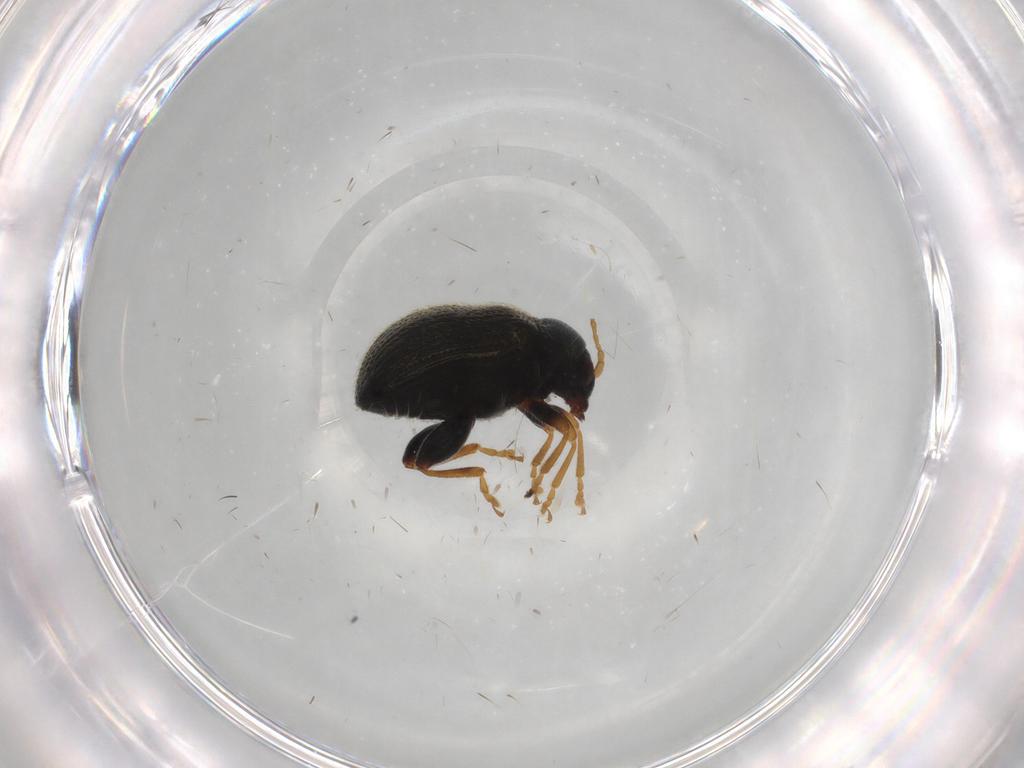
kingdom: Animalia
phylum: Arthropoda
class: Insecta
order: Coleoptera
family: Chrysomelidae
